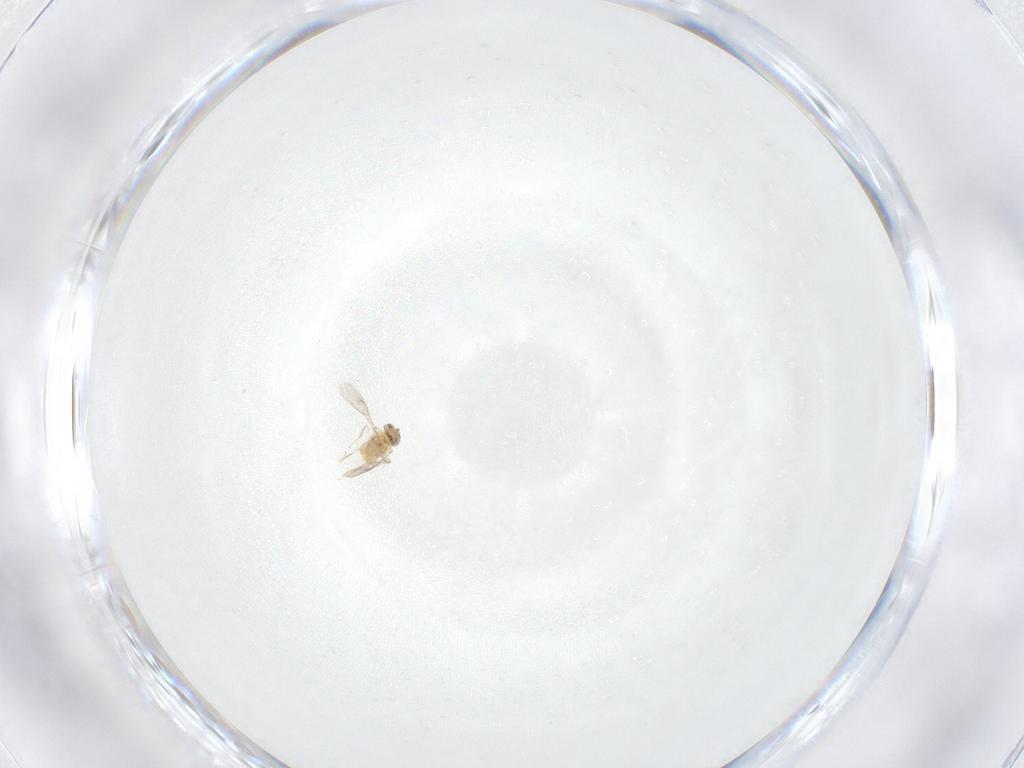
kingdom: Animalia
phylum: Arthropoda
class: Insecta
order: Hymenoptera
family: Aphelinidae
